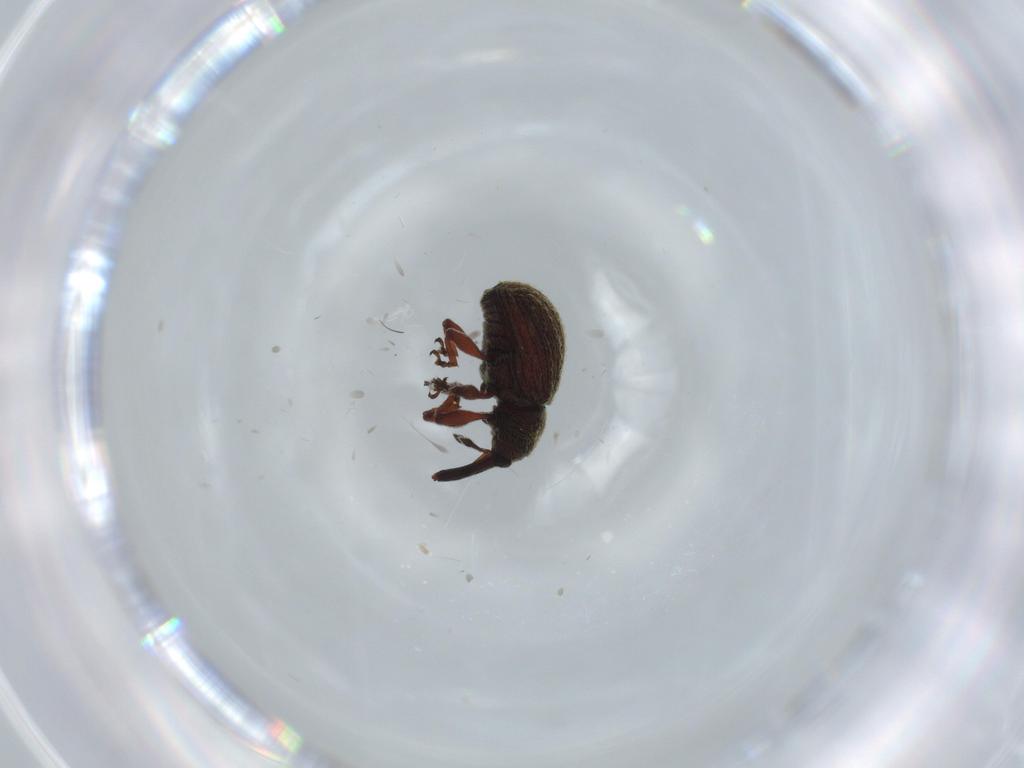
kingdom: Animalia
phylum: Arthropoda
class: Insecta
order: Coleoptera
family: Curculionidae
